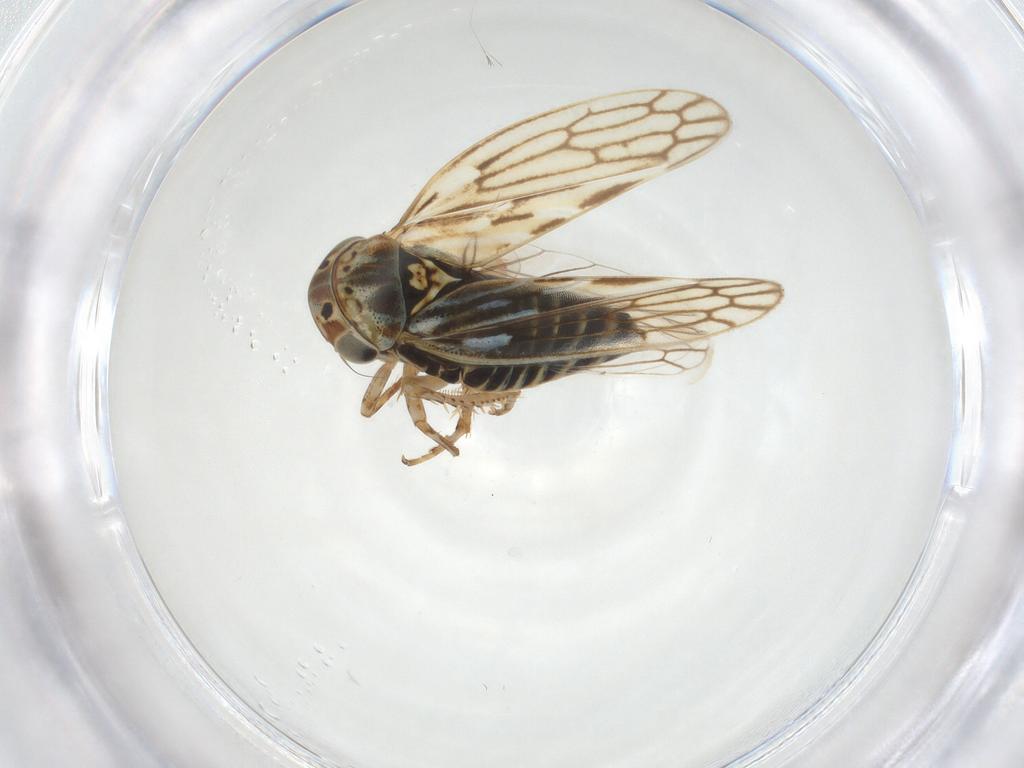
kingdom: Animalia
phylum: Arthropoda
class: Insecta
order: Hemiptera
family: Cicadellidae
